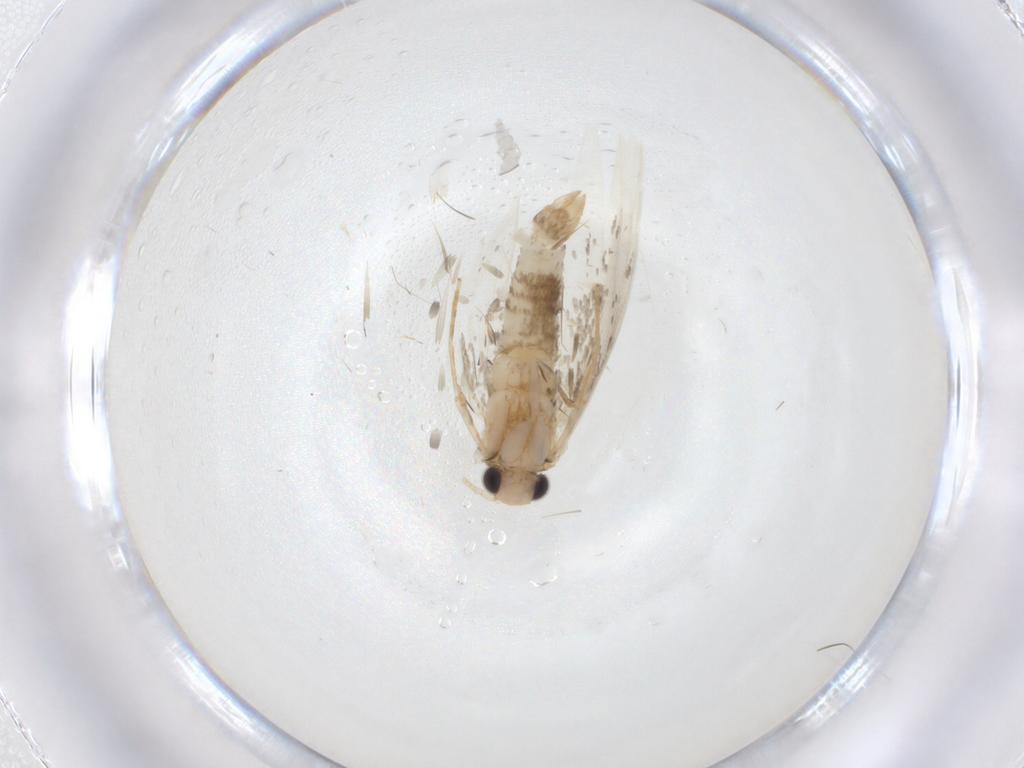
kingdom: Animalia
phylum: Arthropoda
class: Insecta
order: Lepidoptera
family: Tineidae
